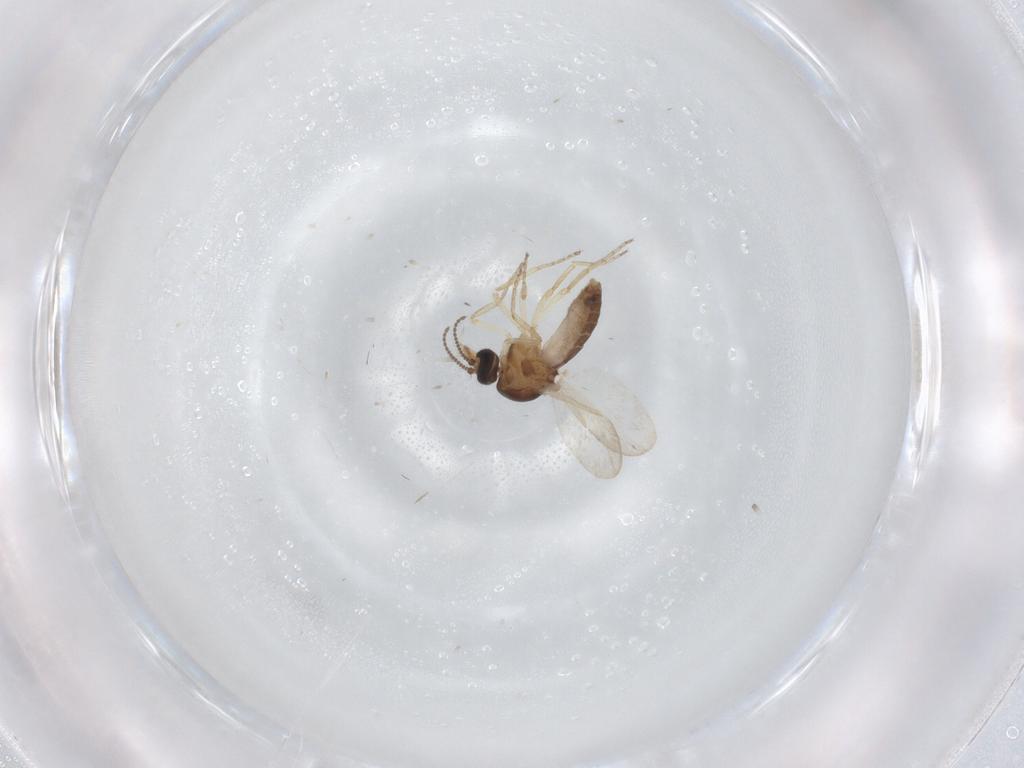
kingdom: Animalia
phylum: Arthropoda
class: Insecta
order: Diptera
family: Ceratopogonidae
